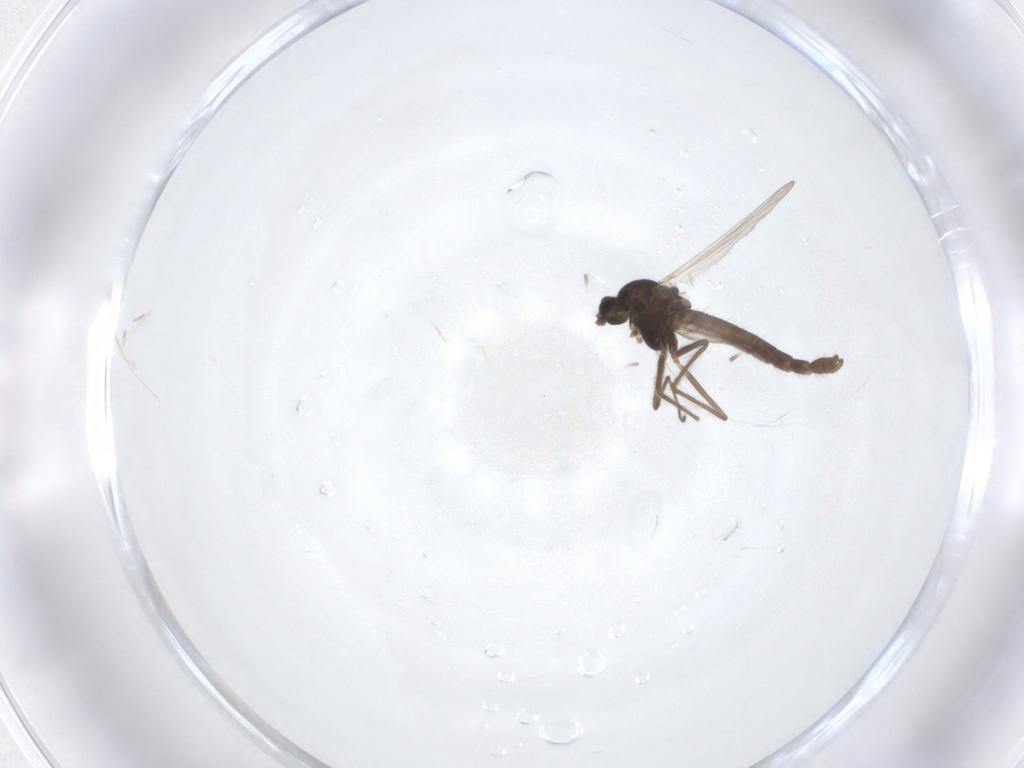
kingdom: Animalia
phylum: Arthropoda
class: Insecta
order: Diptera
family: Chironomidae
